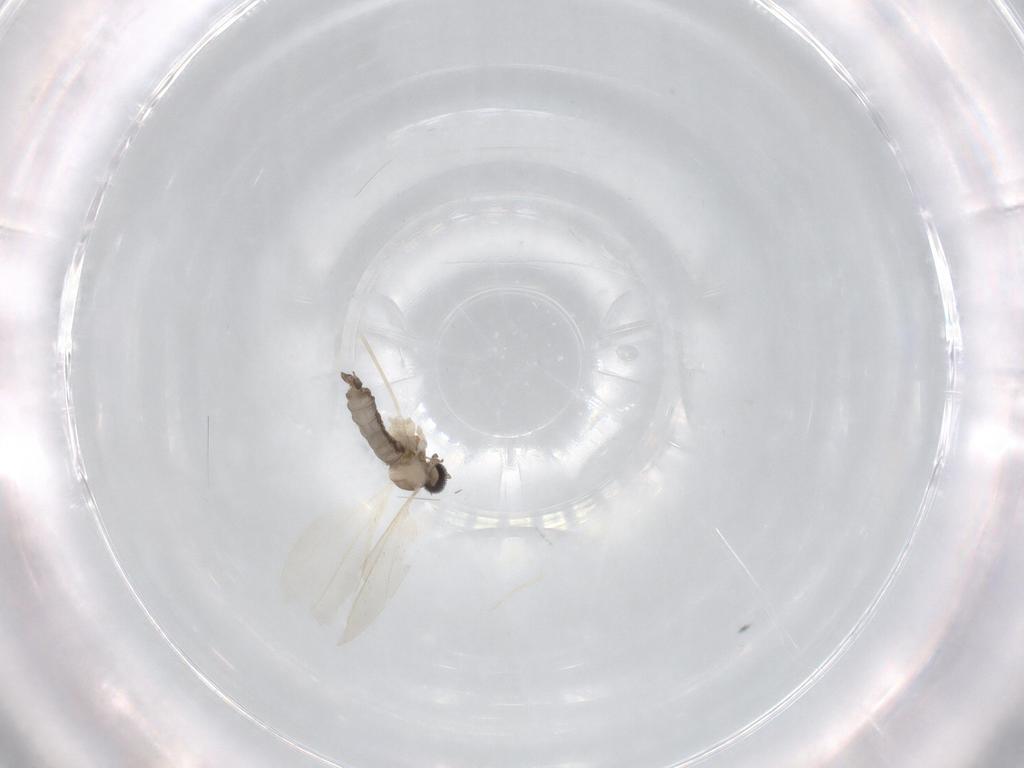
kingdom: Animalia
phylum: Arthropoda
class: Insecta
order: Diptera
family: Cecidomyiidae
